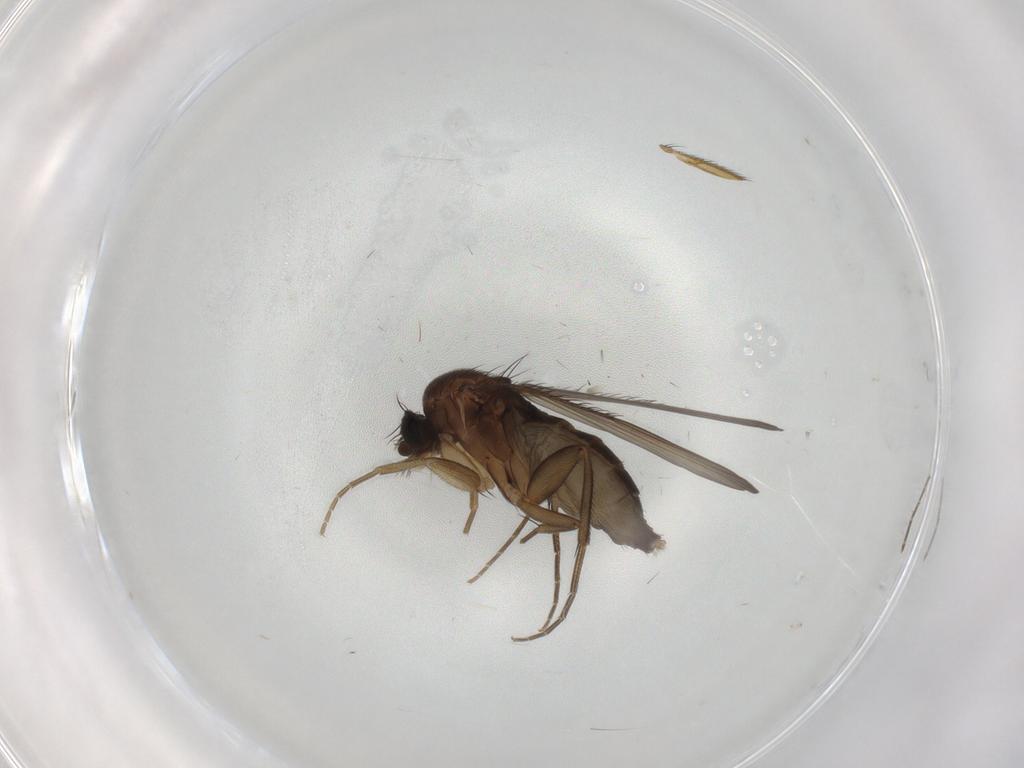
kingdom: Animalia
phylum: Arthropoda
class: Insecta
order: Diptera
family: Phoridae
